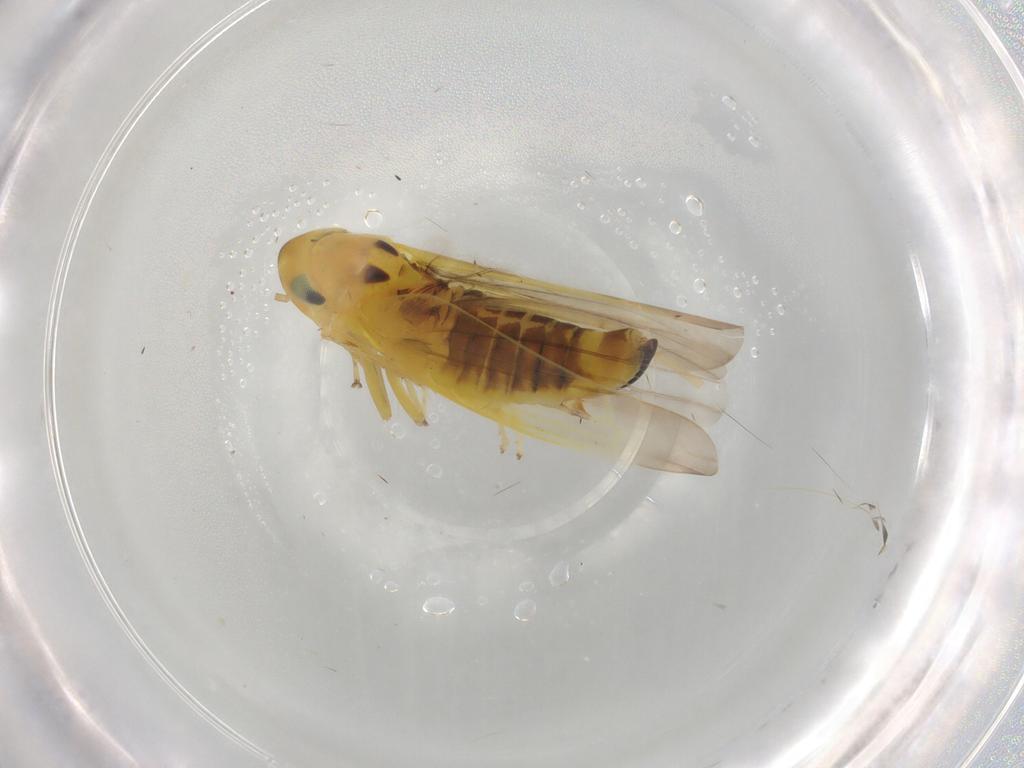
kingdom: Animalia
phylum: Arthropoda
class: Insecta
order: Hemiptera
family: Cicadellidae
